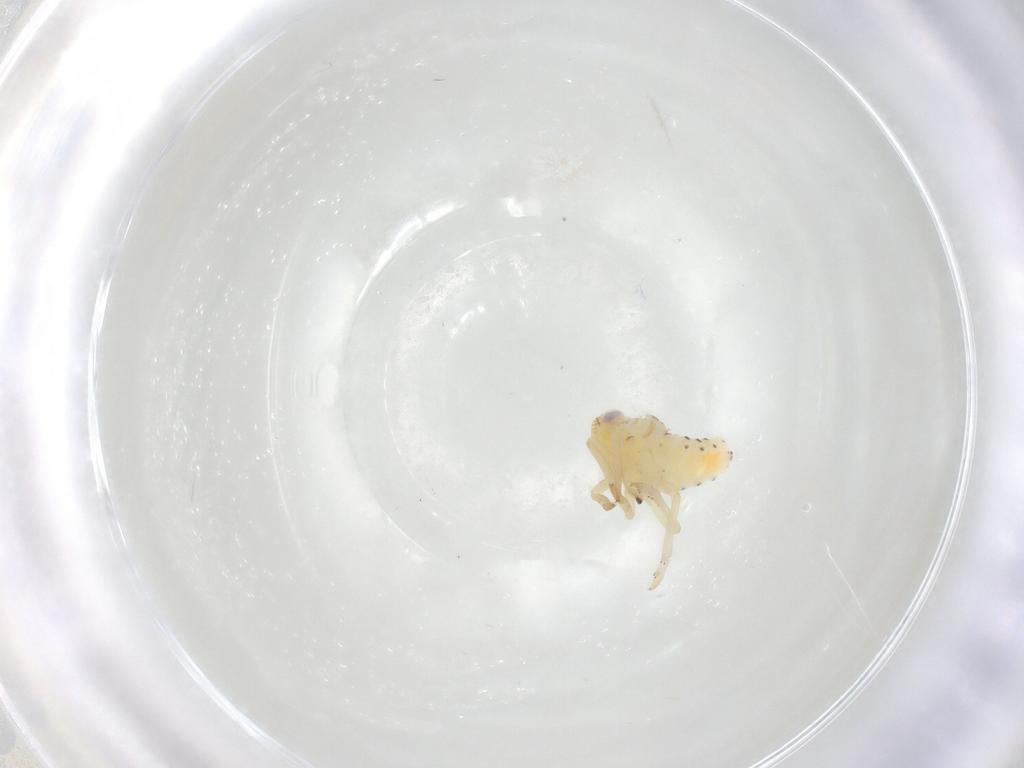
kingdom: Animalia
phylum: Arthropoda
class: Insecta
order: Hemiptera
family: Tropiduchidae
